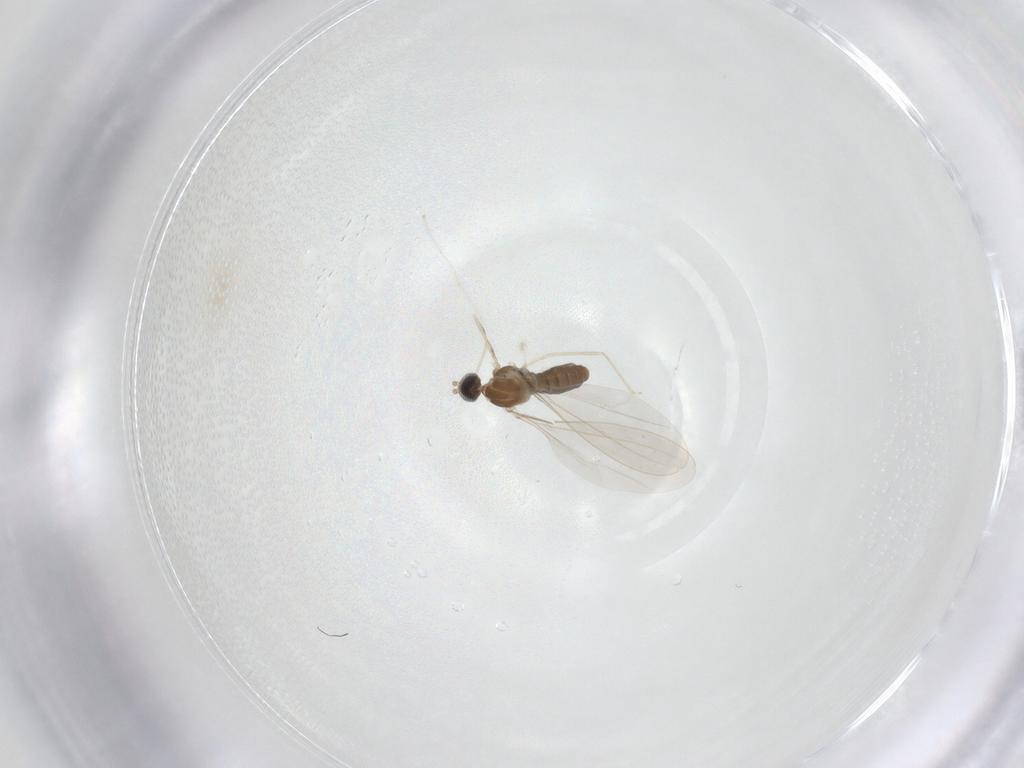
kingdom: Animalia
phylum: Arthropoda
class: Insecta
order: Diptera
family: Cecidomyiidae
